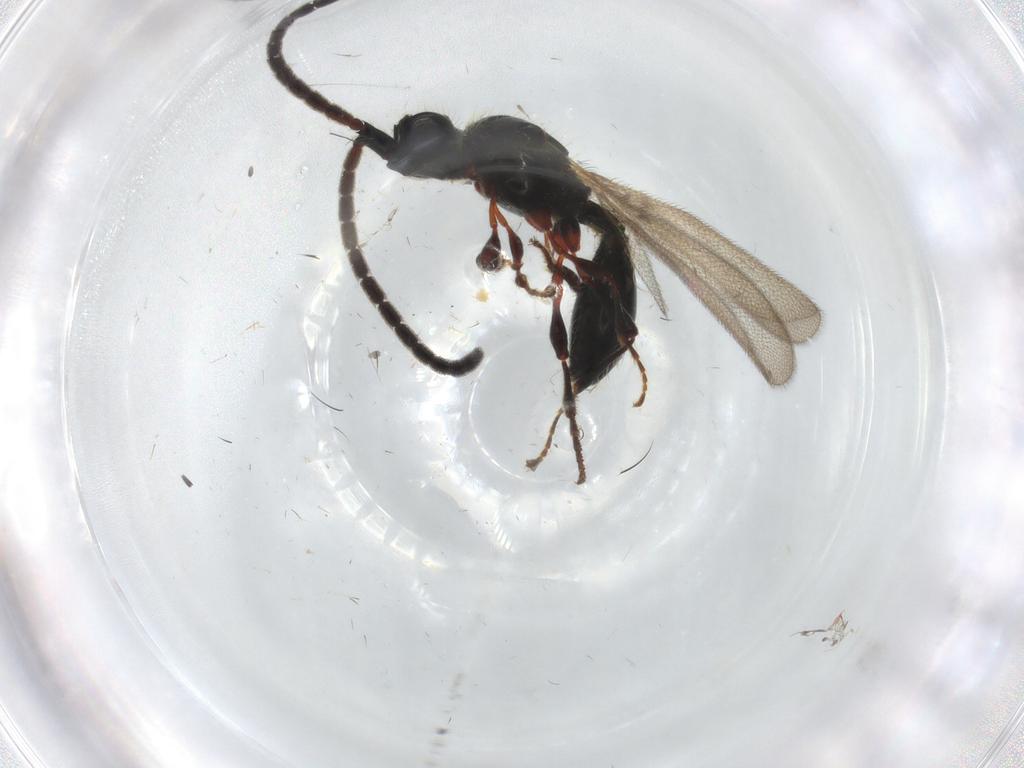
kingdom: Animalia
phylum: Arthropoda
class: Insecta
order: Hymenoptera
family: Diapriidae
